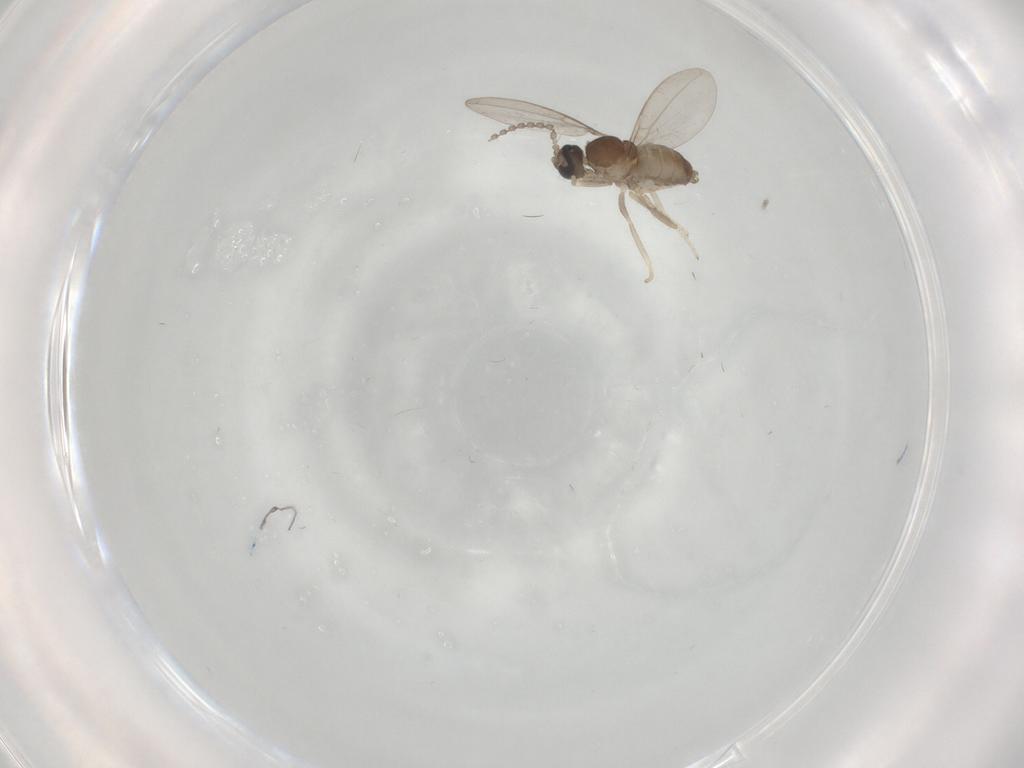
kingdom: Animalia
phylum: Arthropoda
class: Insecta
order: Diptera
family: Cecidomyiidae
